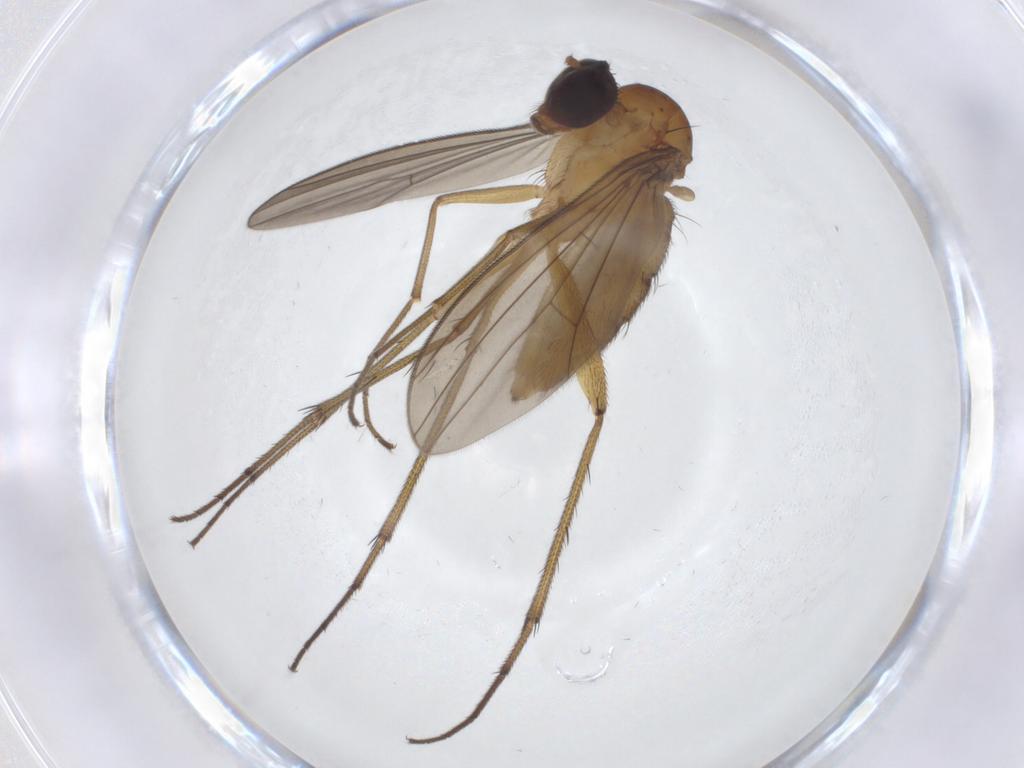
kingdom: Animalia
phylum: Arthropoda
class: Insecta
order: Diptera
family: Dolichopodidae
